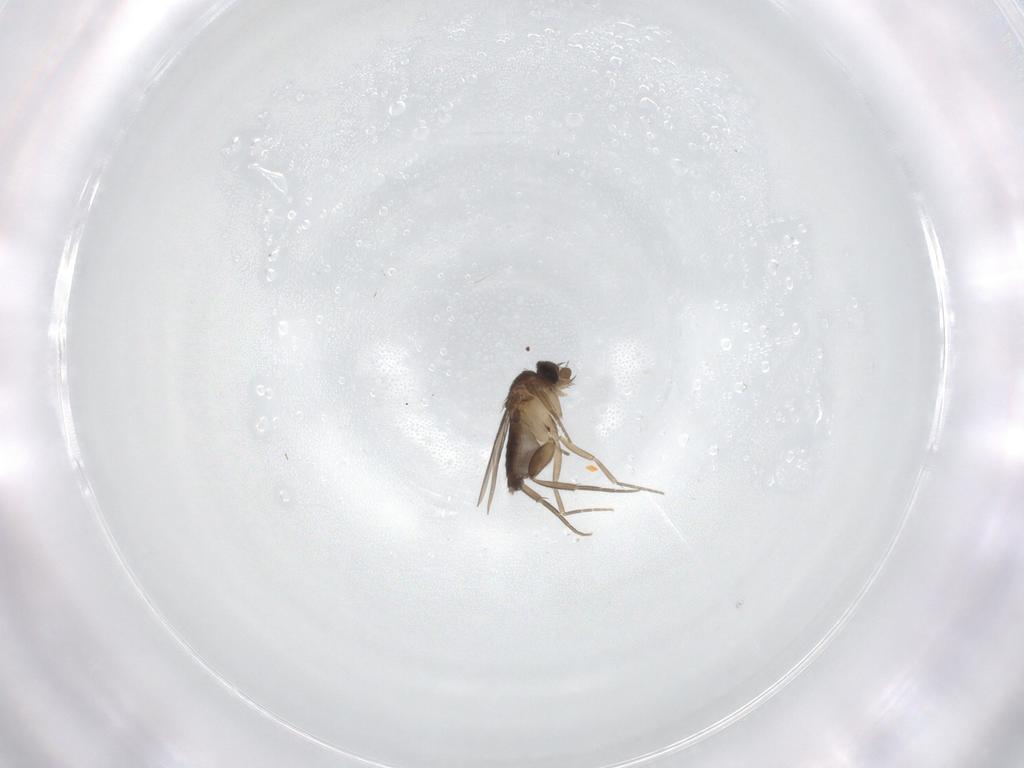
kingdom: Animalia
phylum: Arthropoda
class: Insecta
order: Diptera
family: Phoridae
